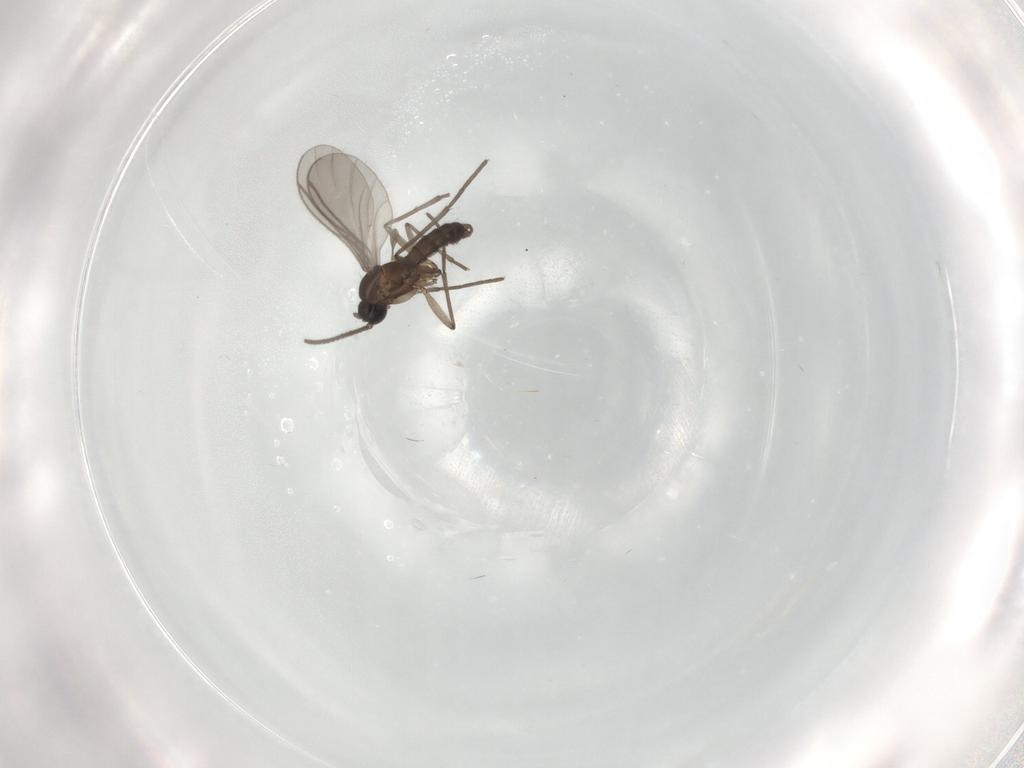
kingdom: Animalia
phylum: Arthropoda
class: Insecta
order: Diptera
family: Sciaridae
